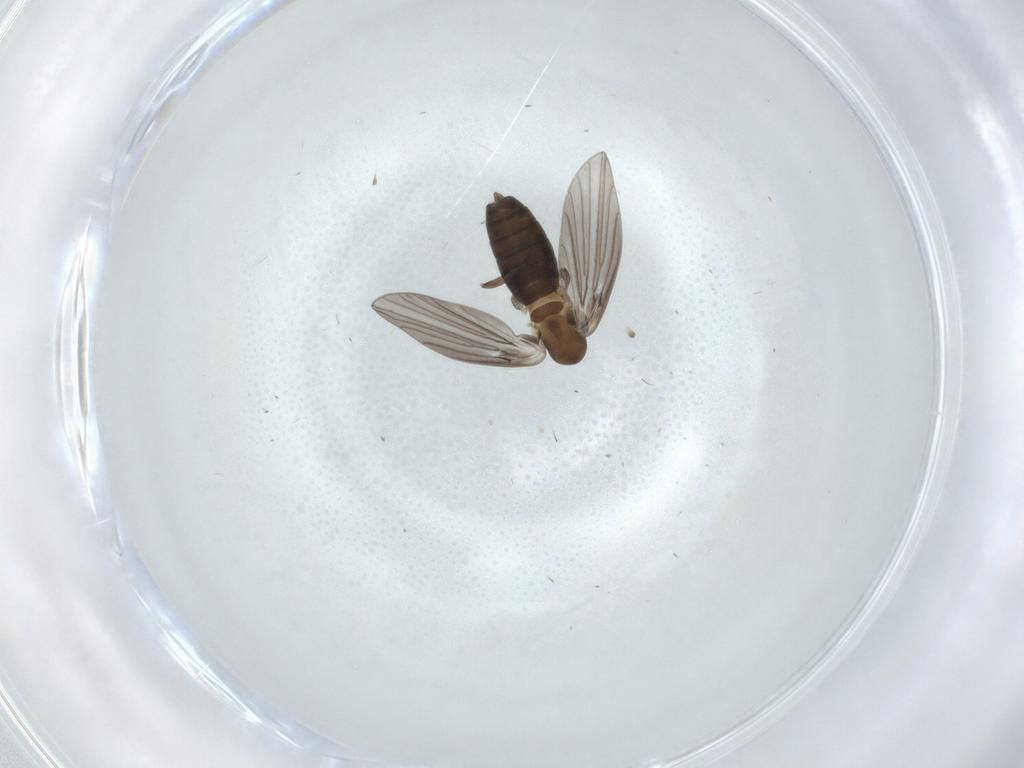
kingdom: Animalia
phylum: Arthropoda
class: Insecta
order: Diptera
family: Psychodidae
